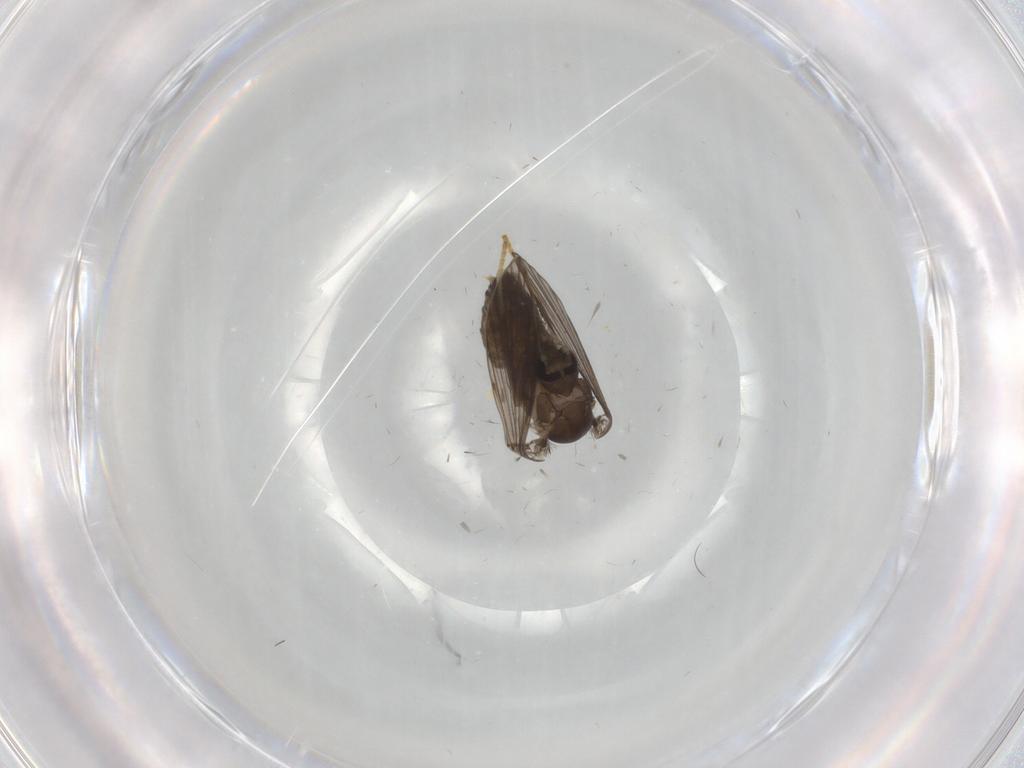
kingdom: Animalia
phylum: Arthropoda
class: Insecta
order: Diptera
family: Psychodidae
